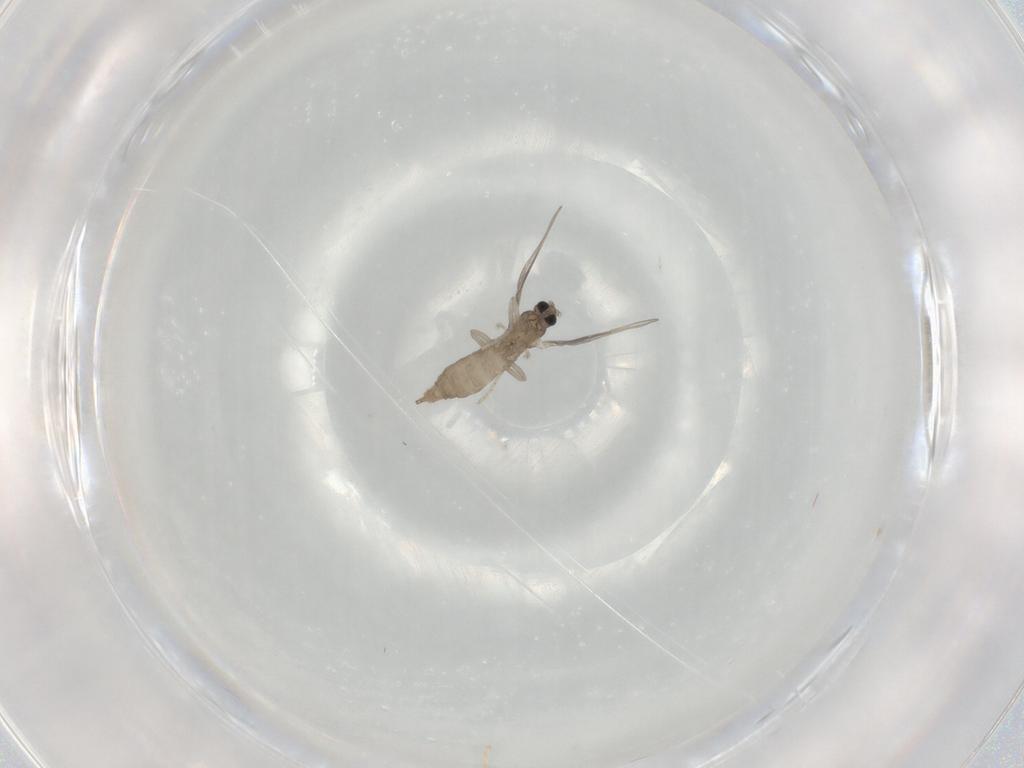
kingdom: Animalia
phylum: Arthropoda
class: Insecta
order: Diptera
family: Cecidomyiidae
